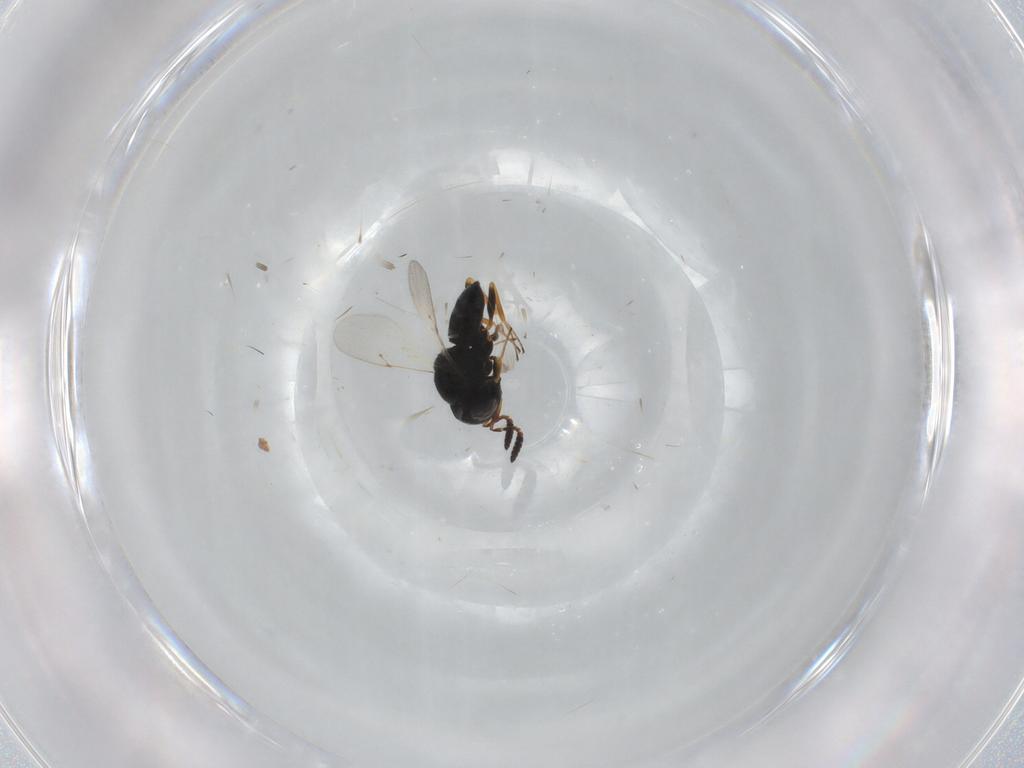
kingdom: Animalia
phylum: Arthropoda
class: Insecta
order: Coleoptera
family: Curculionidae
